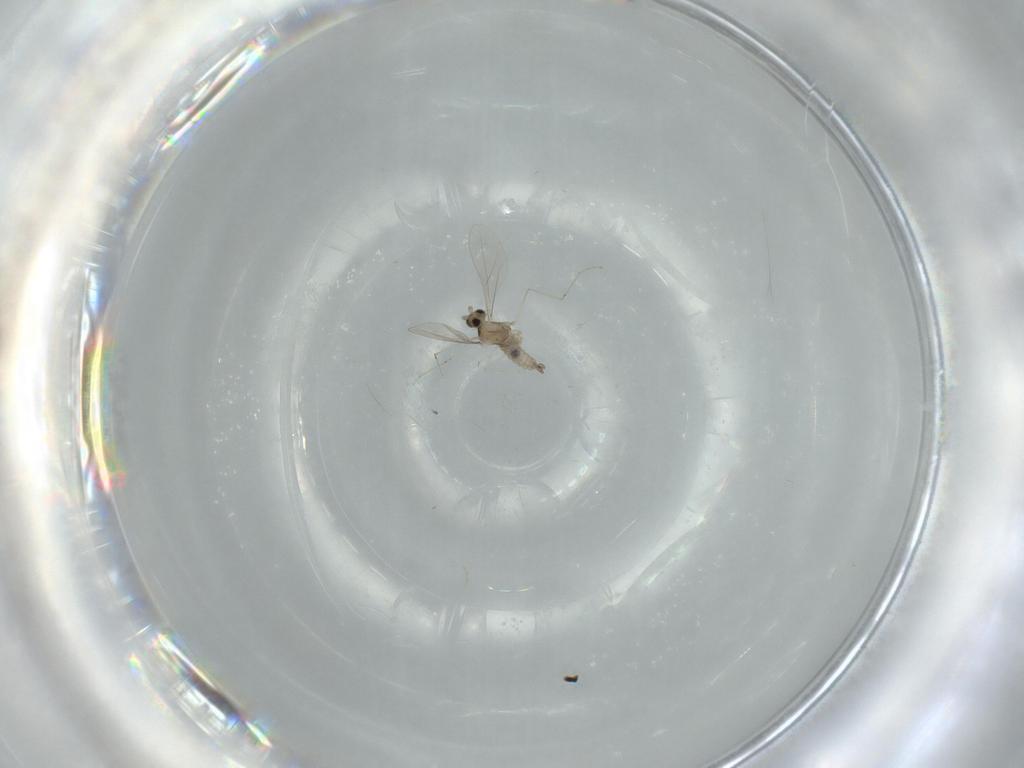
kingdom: Animalia
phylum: Arthropoda
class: Insecta
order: Diptera
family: Cecidomyiidae
